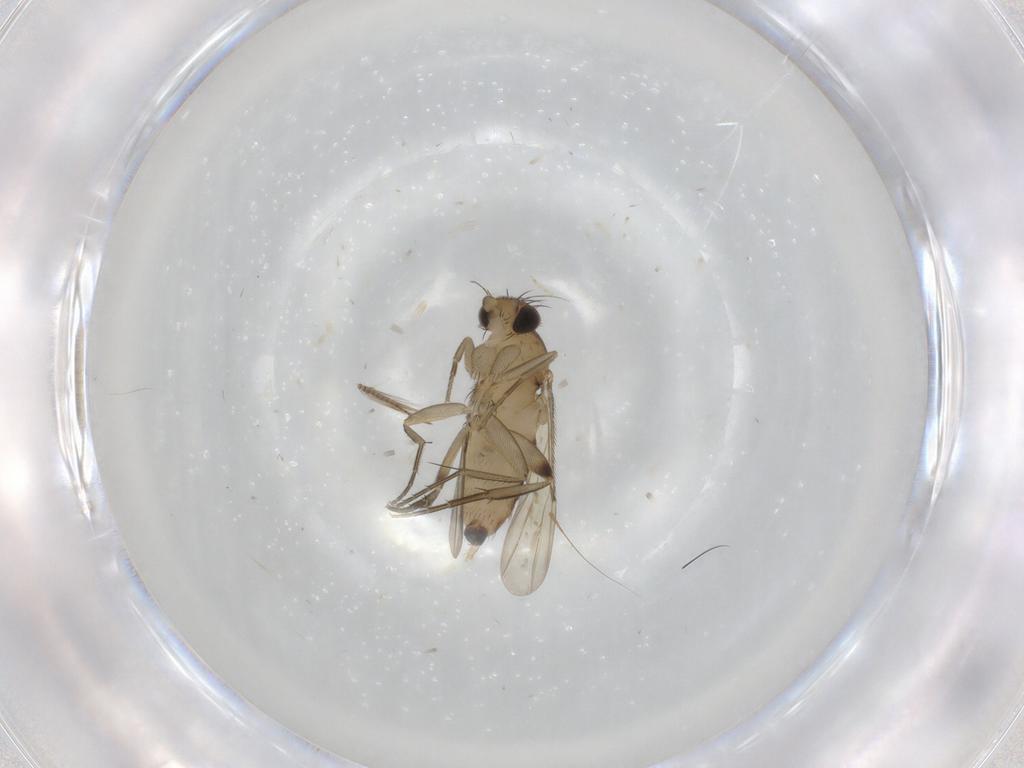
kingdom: Animalia
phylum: Arthropoda
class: Insecta
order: Diptera
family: Phoridae
